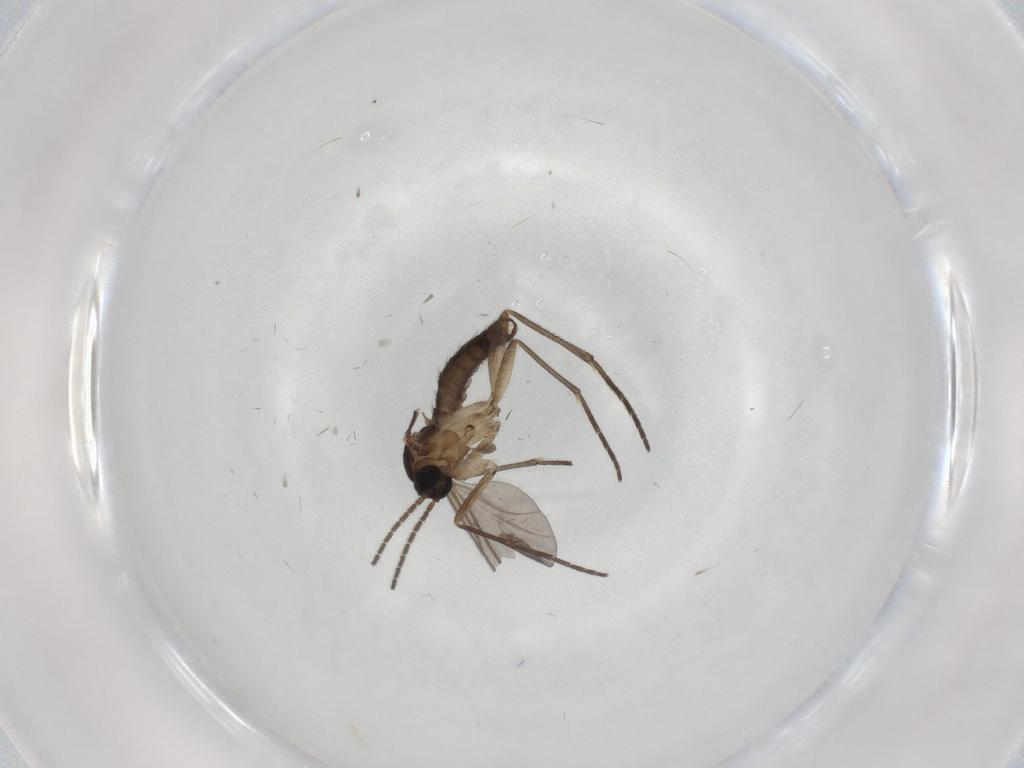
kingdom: Animalia
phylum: Arthropoda
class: Insecta
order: Diptera
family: Sciaridae
